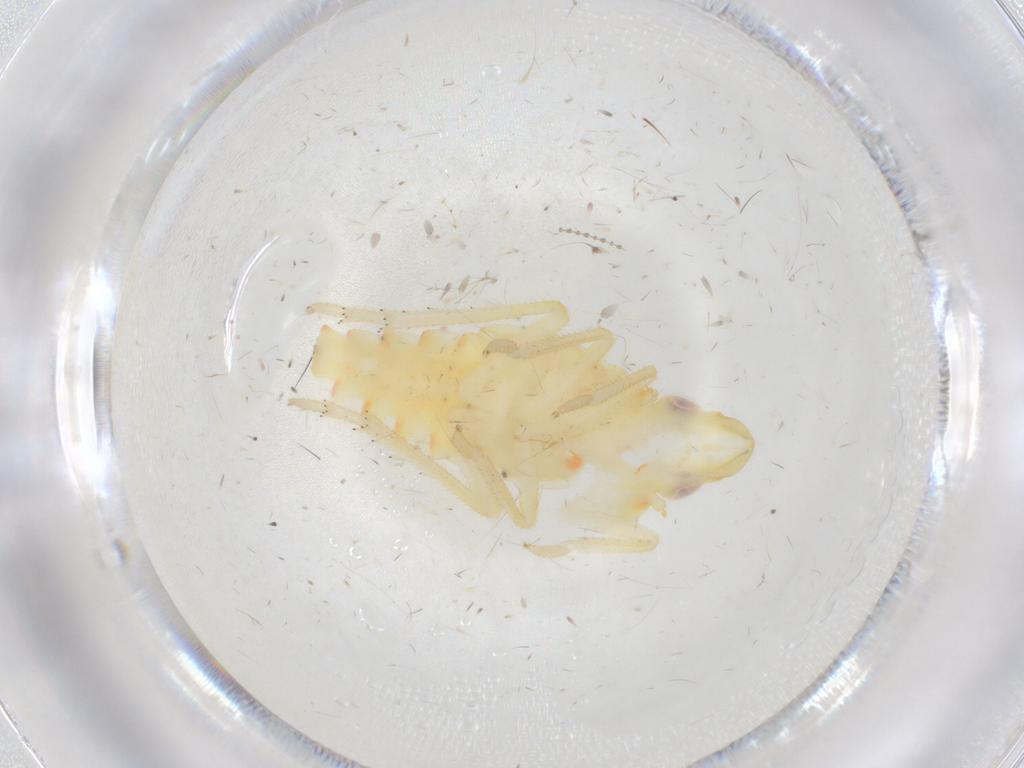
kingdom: Animalia
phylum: Arthropoda
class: Insecta
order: Hemiptera
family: Tropiduchidae
